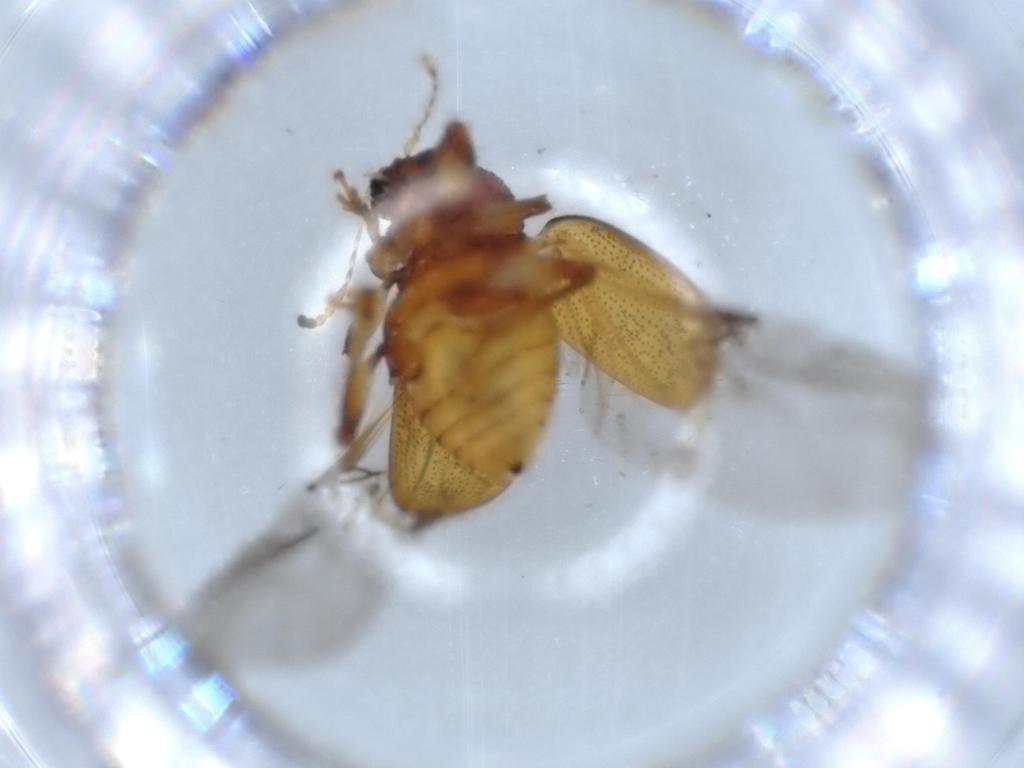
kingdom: Animalia
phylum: Arthropoda
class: Insecta
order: Coleoptera
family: Chrysomelidae
